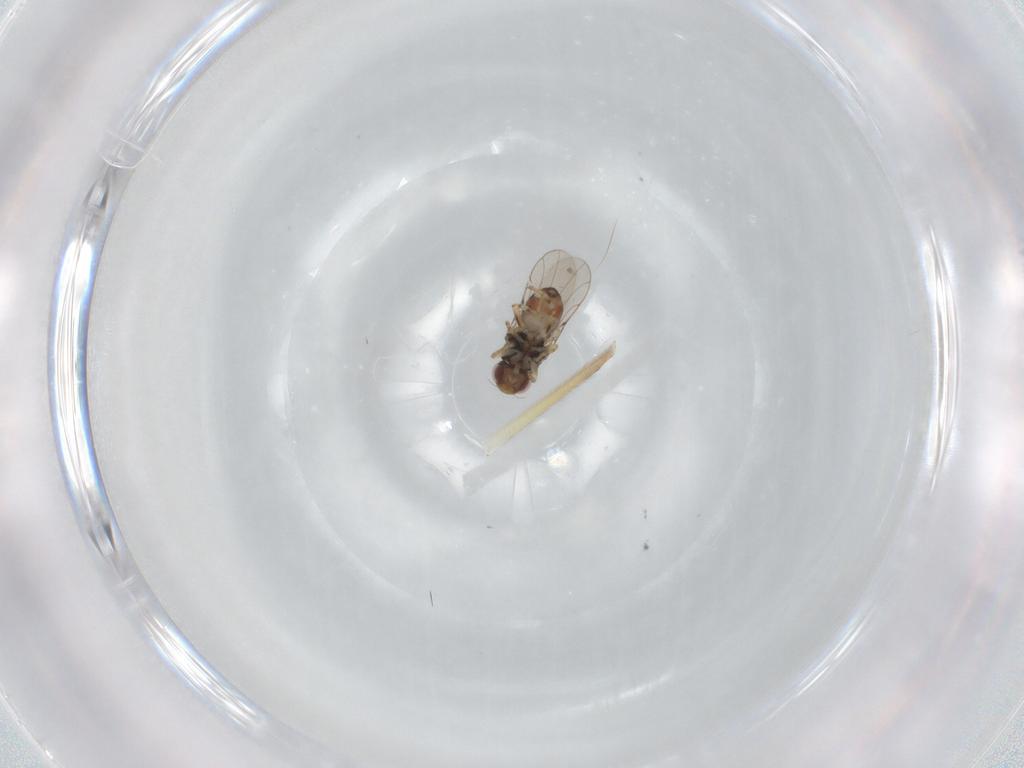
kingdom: Animalia
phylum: Arthropoda
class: Insecta
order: Diptera
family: Chloropidae
